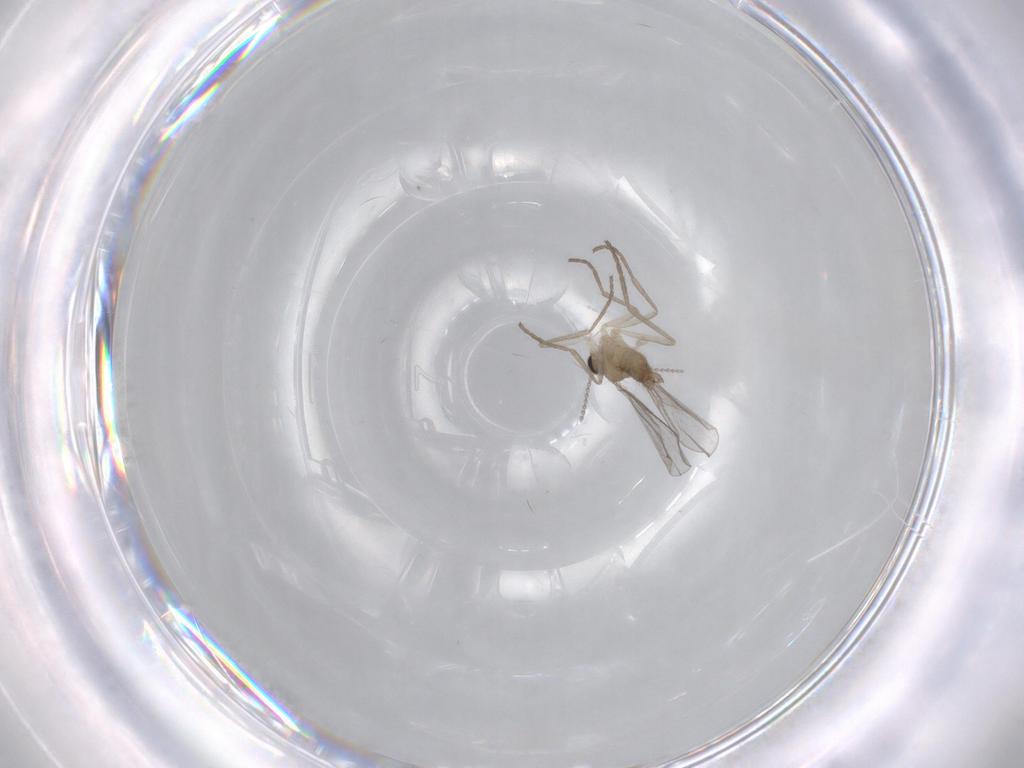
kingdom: Animalia
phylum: Arthropoda
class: Insecta
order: Diptera
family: Cecidomyiidae
